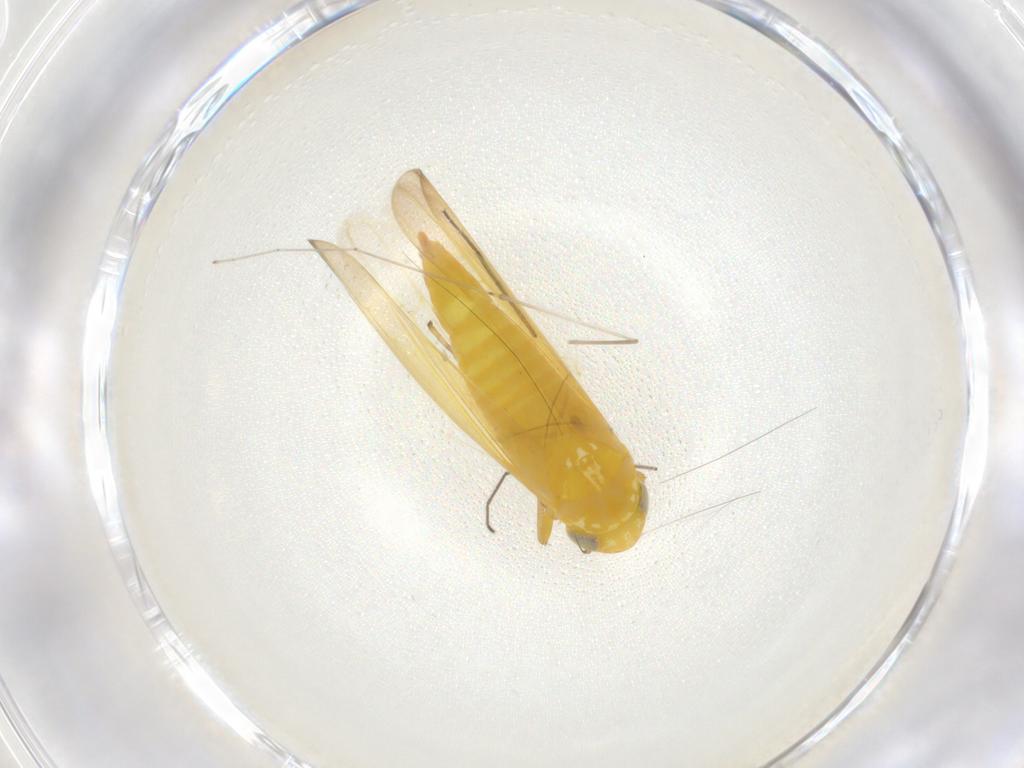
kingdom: Animalia
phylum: Arthropoda
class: Insecta
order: Hemiptera
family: Cicadellidae
